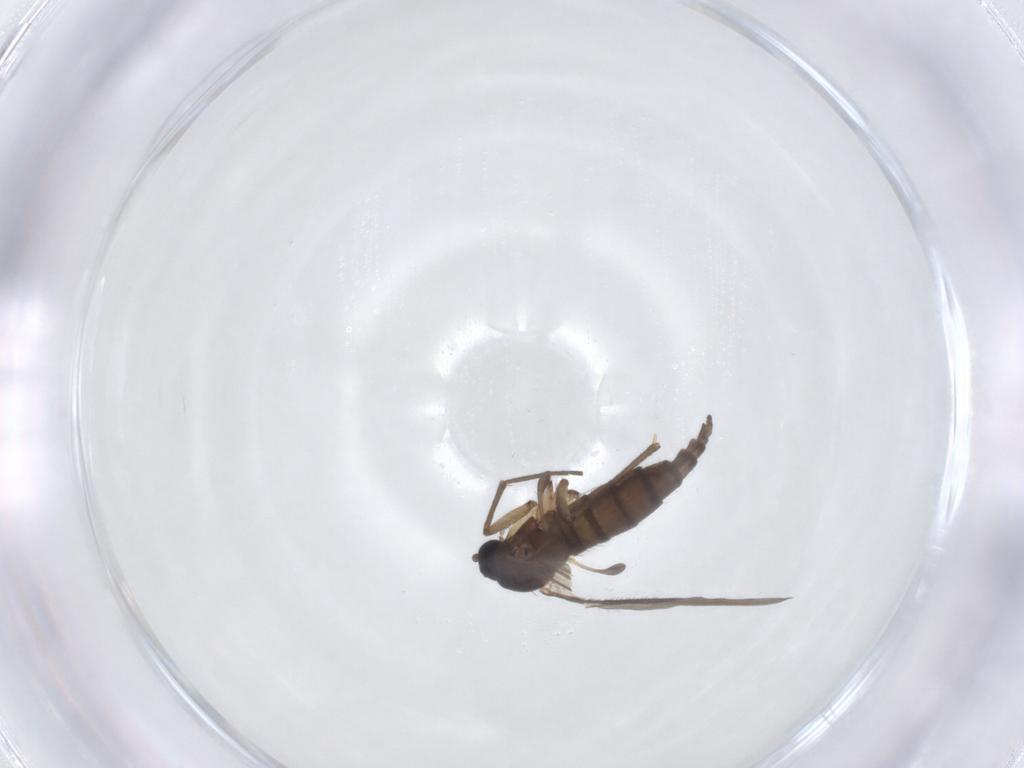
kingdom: Animalia
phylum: Arthropoda
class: Insecta
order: Diptera
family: Sciaridae
